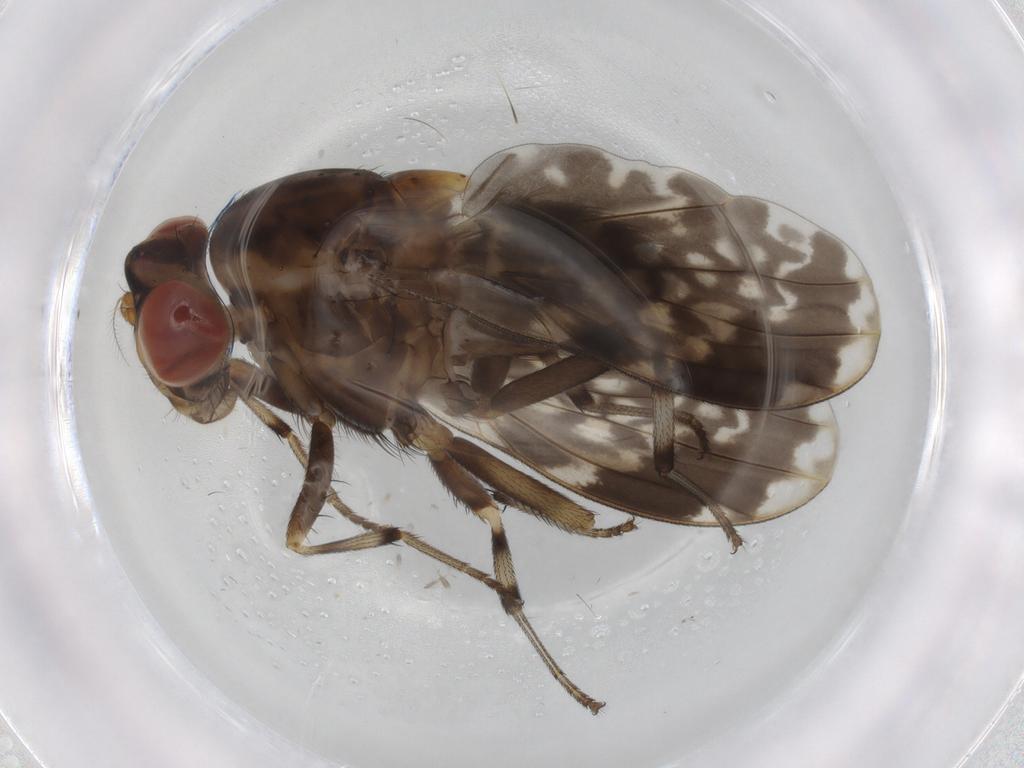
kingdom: Animalia
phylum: Arthropoda
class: Insecta
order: Diptera
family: Cecidomyiidae
